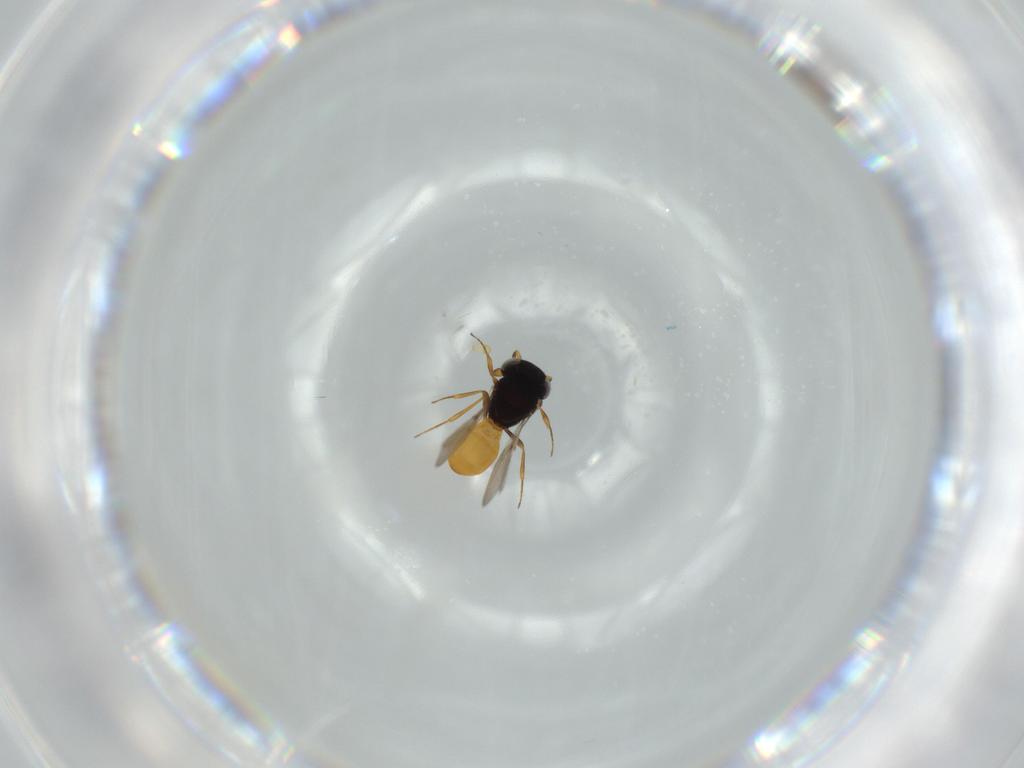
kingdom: Animalia
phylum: Arthropoda
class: Insecta
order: Hymenoptera
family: Scelionidae
